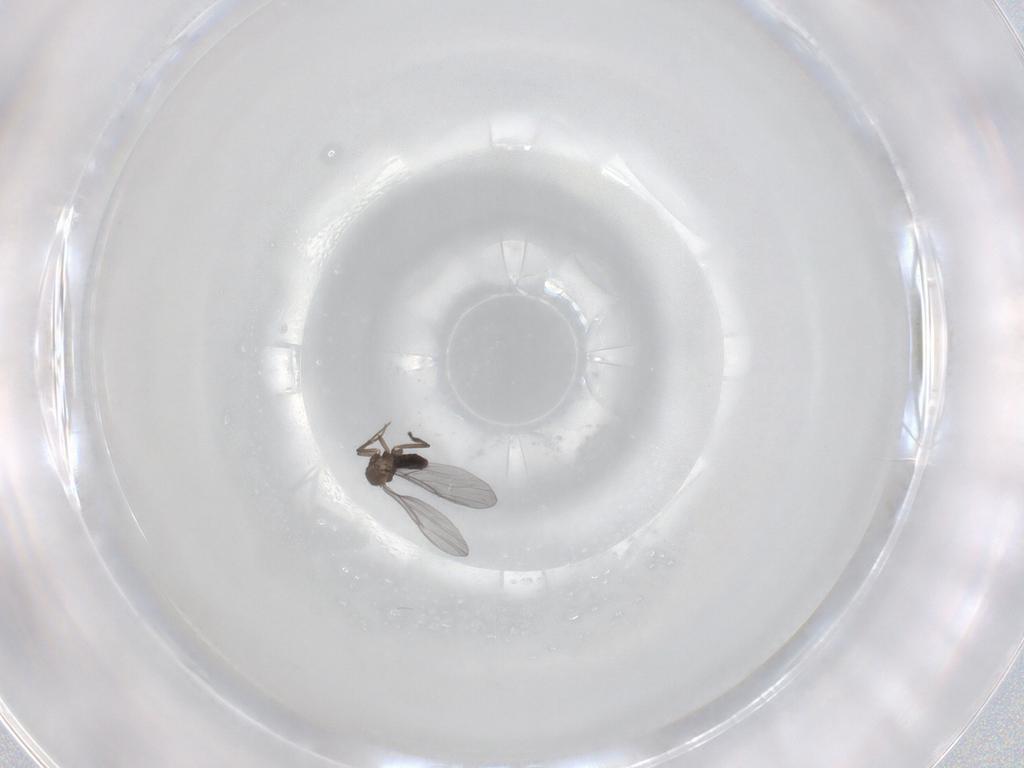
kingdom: Animalia
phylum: Arthropoda
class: Insecta
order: Diptera
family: Phoridae
